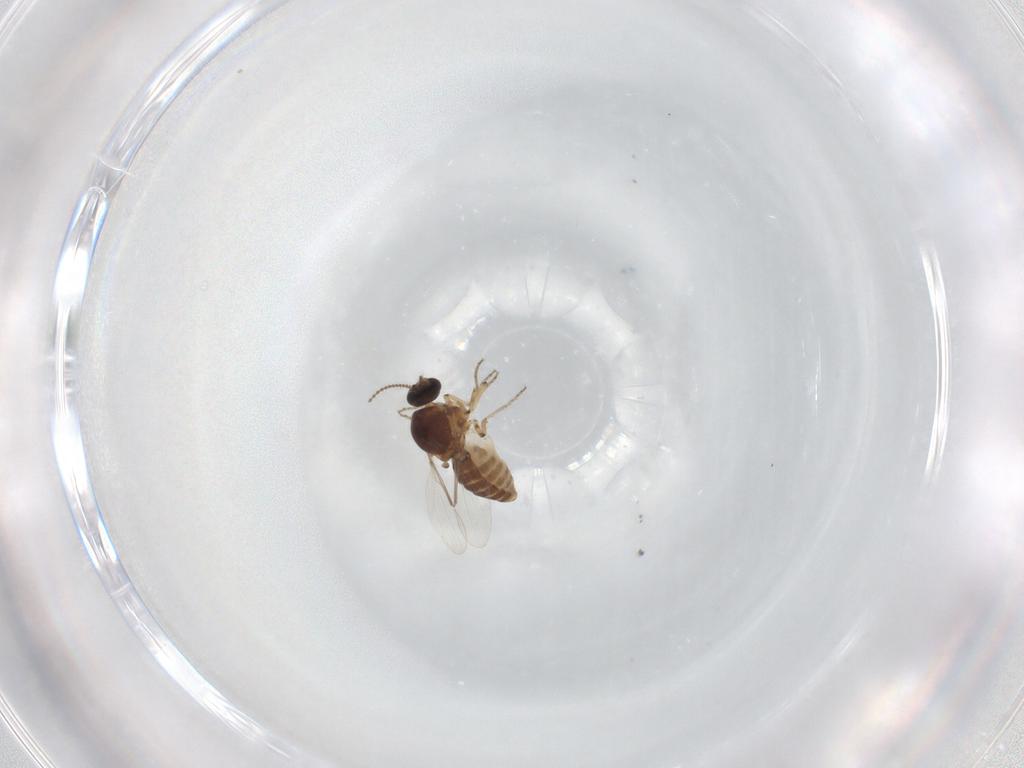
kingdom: Animalia
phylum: Arthropoda
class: Insecta
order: Diptera
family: Ceratopogonidae
